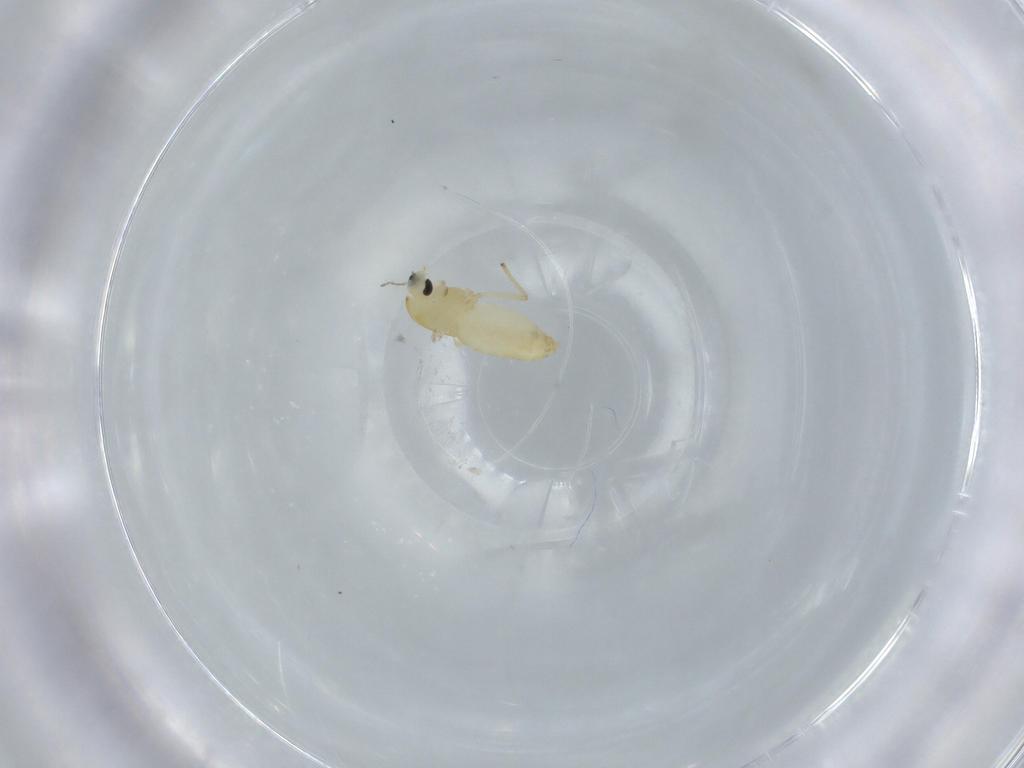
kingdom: Animalia
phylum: Arthropoda
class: Insecta
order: Diptera
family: Chironomidae
